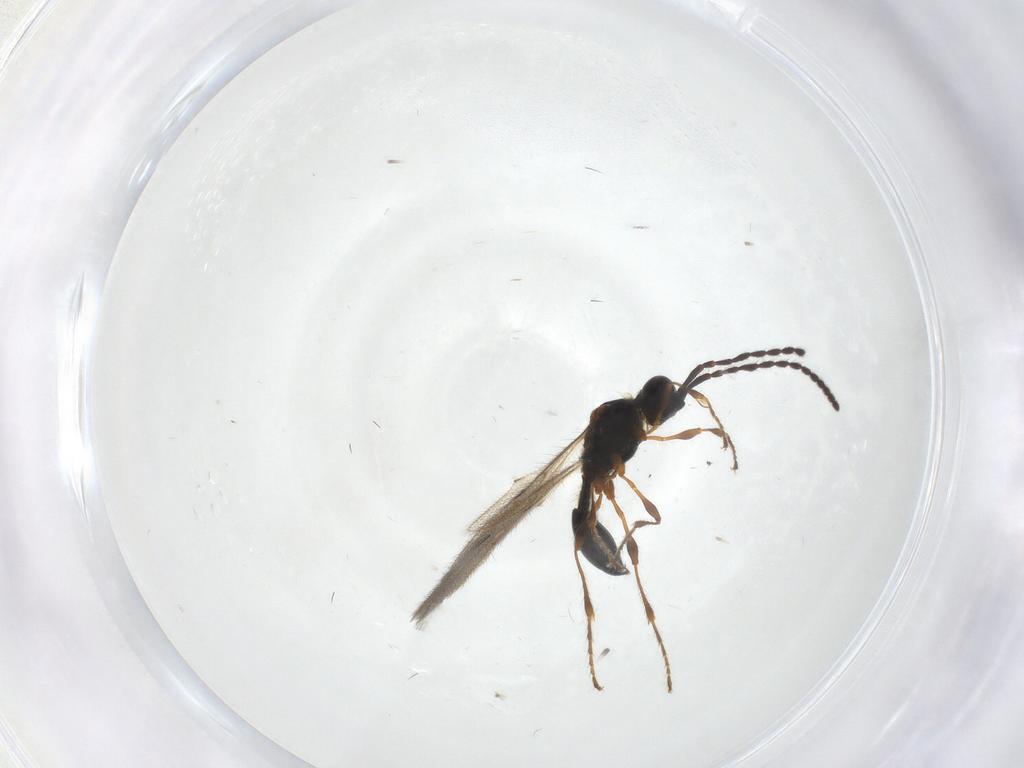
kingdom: Animalia
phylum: Arthropoda
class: Insecta
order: Hymenoptera
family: Diapriidae
